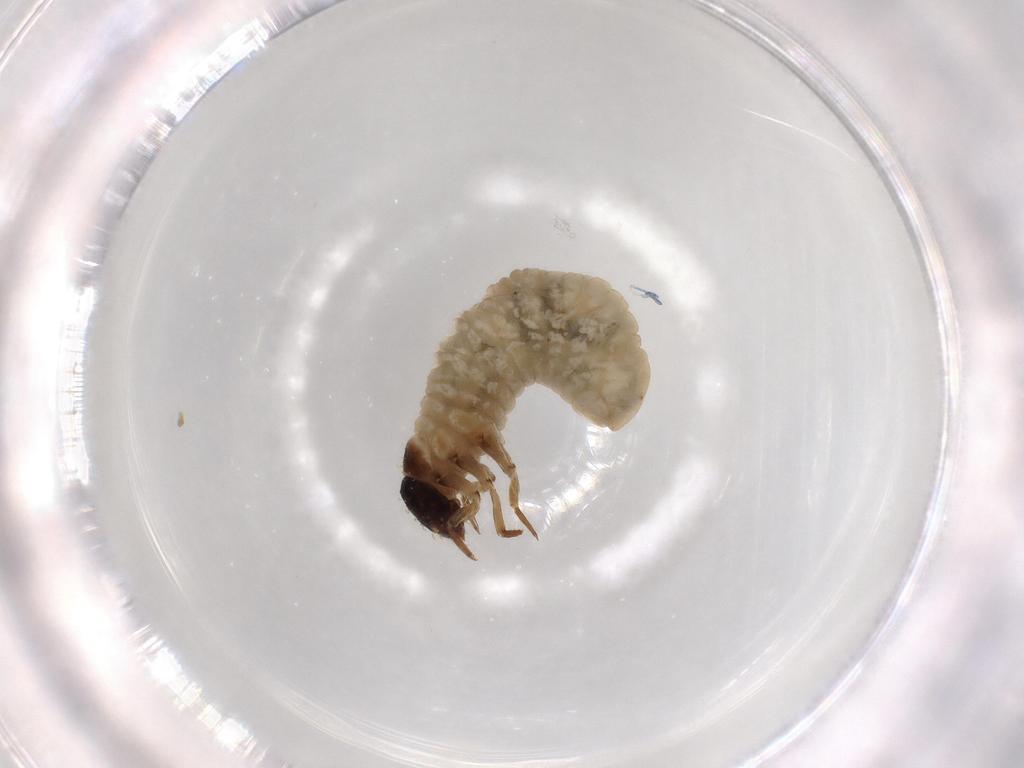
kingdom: Animalia
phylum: Arthropoda
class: Insecta
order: Coleoptera
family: Chrysomelidae
